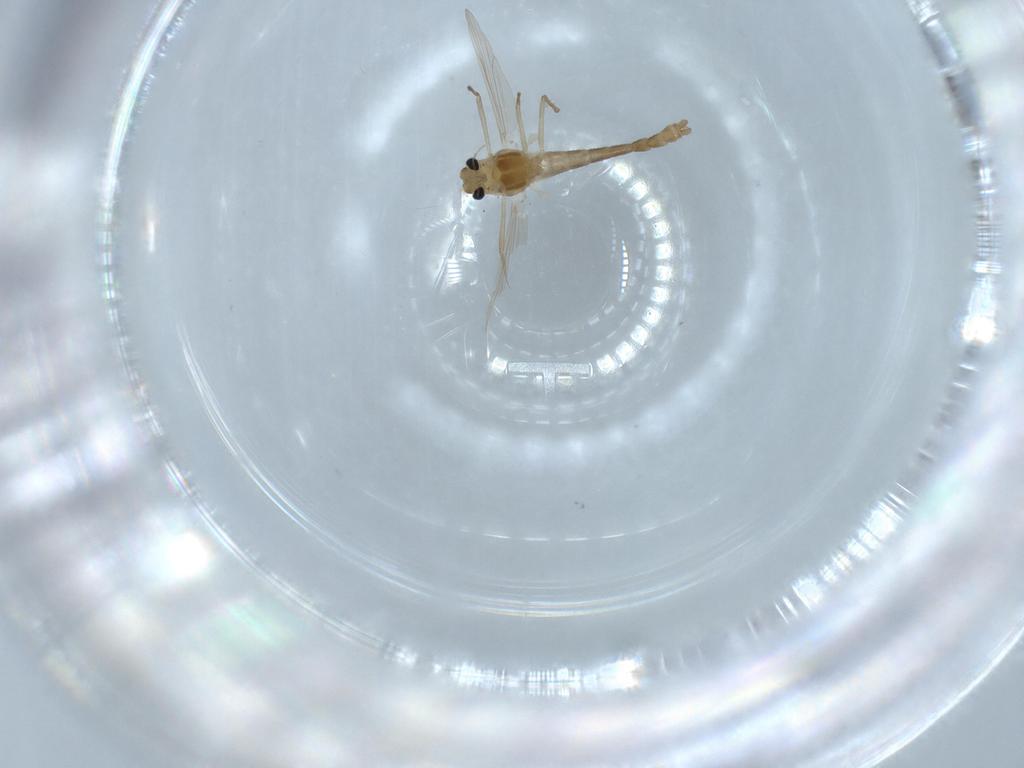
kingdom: Animalia
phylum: Arthropoda
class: Insecta
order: Diptera
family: Chironomidae
